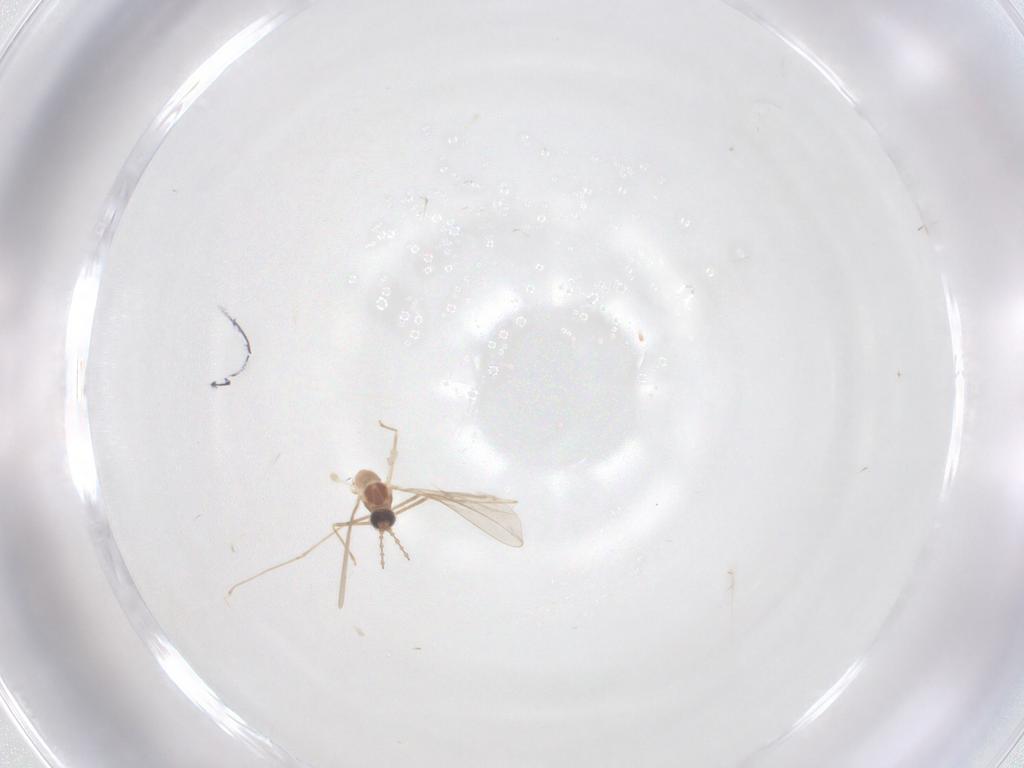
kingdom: Animalia
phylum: Arthropoda
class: Insecta
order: Diptera
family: Cecidomyiidae
